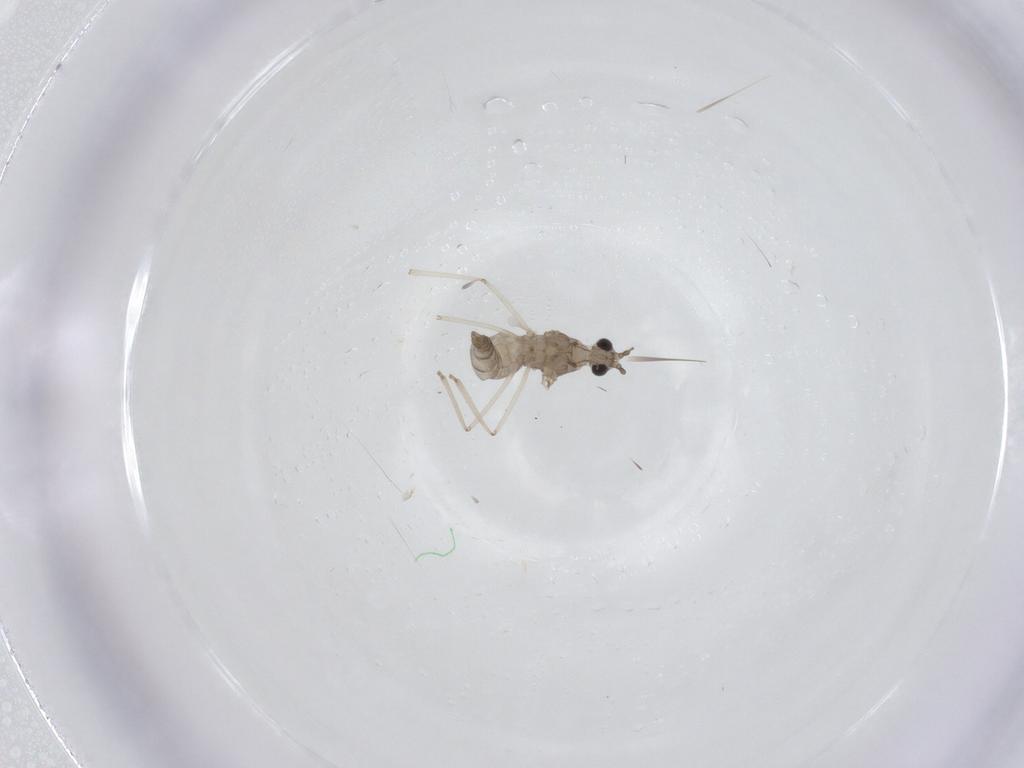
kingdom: Animalia
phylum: Arthropoda
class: Insecta
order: Diptera
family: Cecidomyiidae
